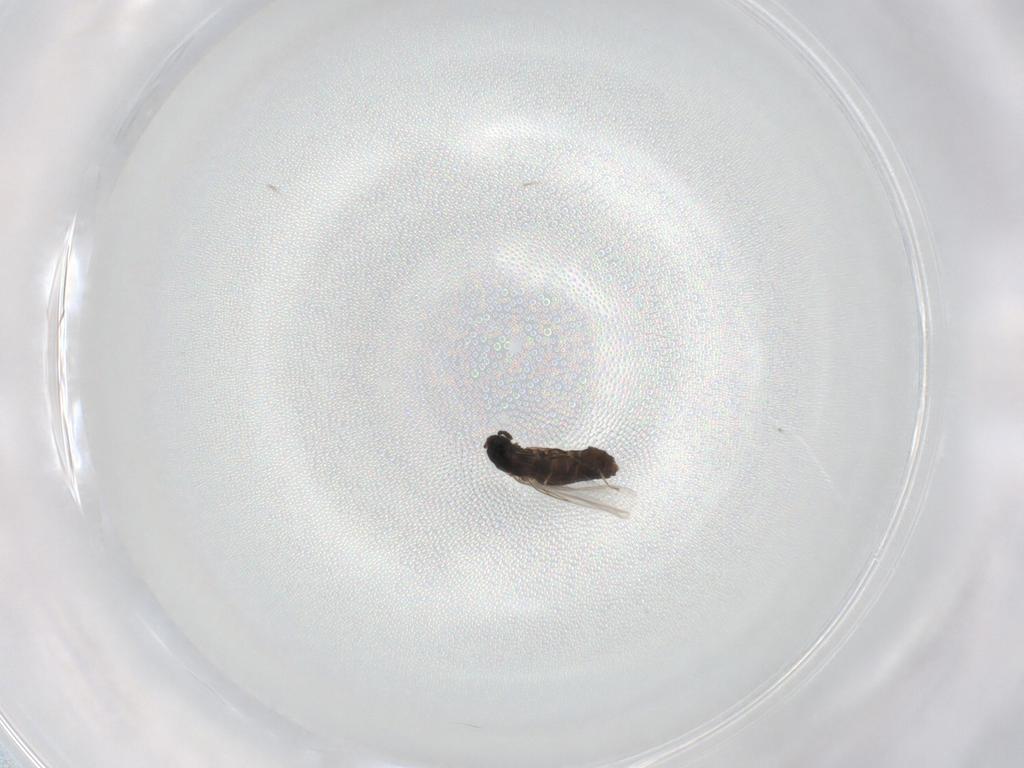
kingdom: Animalia
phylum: Arthropoda
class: Insecta
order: Diptera
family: Scatopsidae
